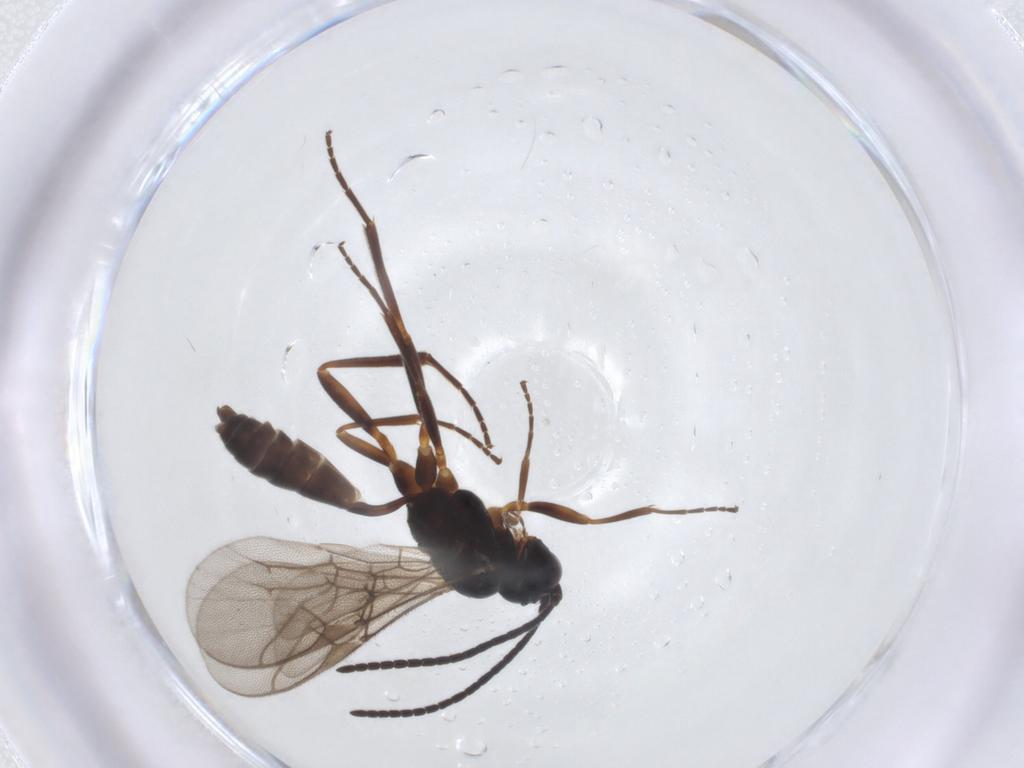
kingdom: Animalia
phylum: Arthropoda
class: Insecta
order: Hymenoptera
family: Ichneumonidae
